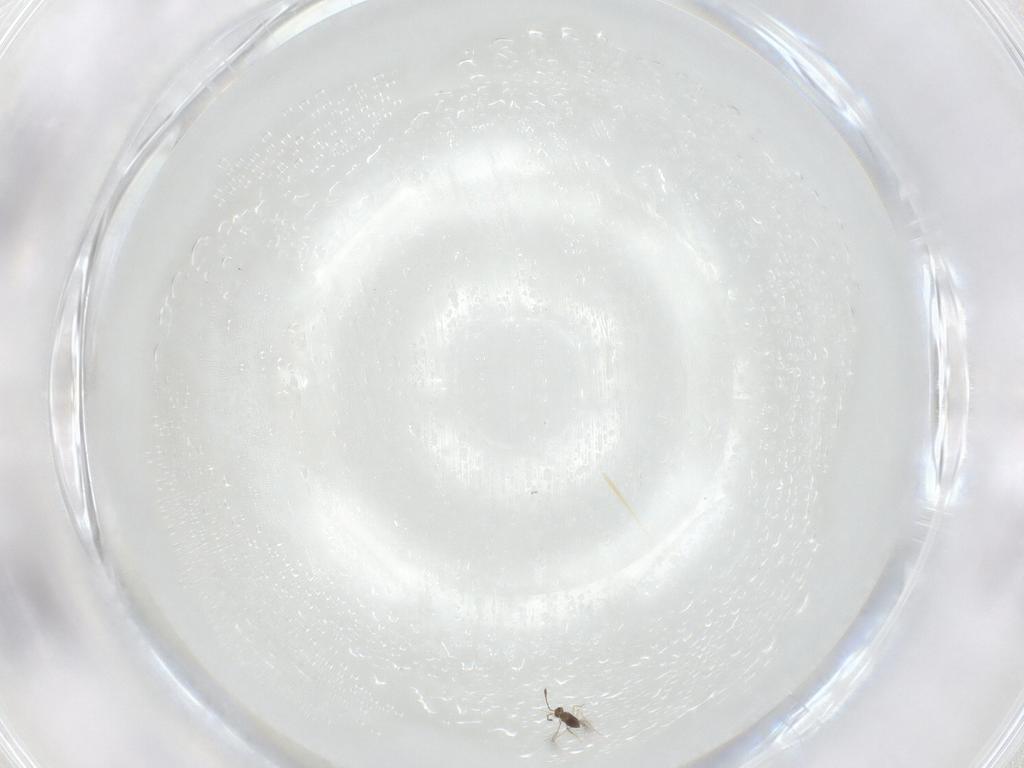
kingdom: Animalia
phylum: Arthropoda
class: Insecta
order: Diptera
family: Chironomidae
